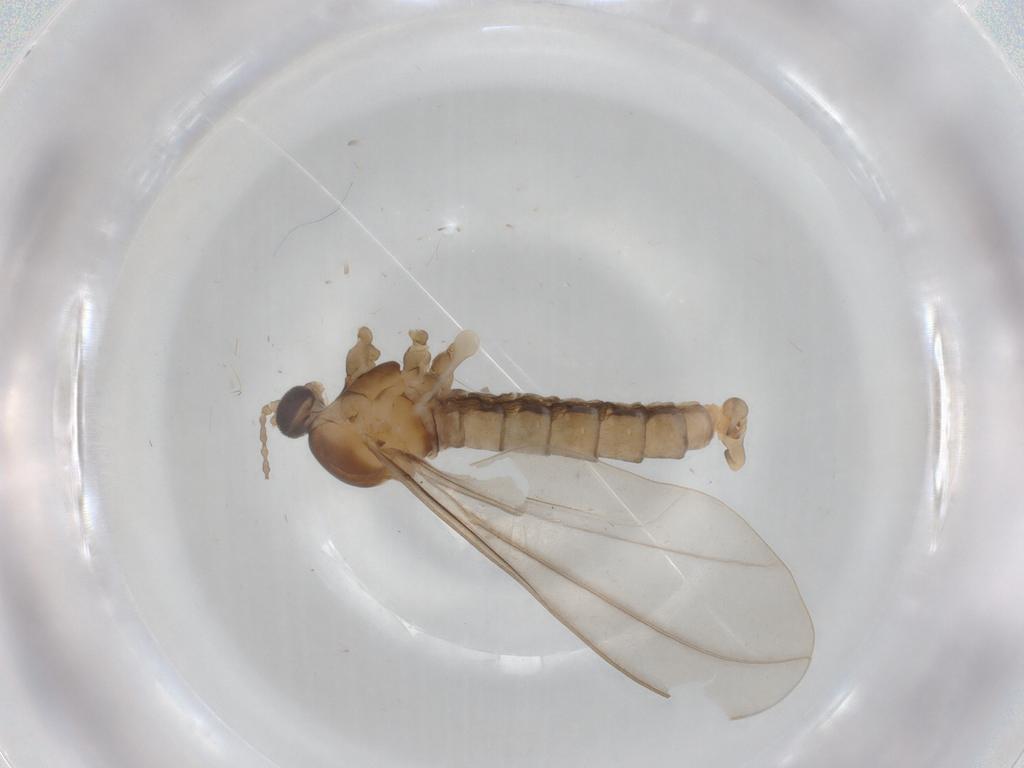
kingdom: Animalia
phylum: Arthropoda
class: Insecta
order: Diptera
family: Cecidomyiidae
